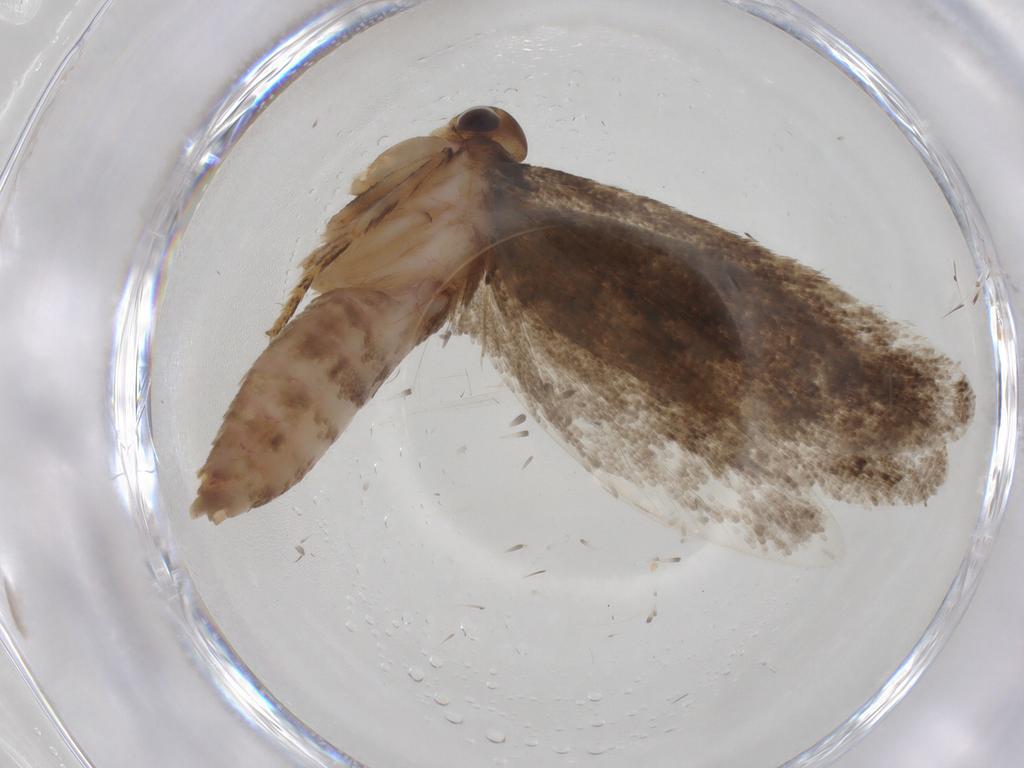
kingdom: Animalia
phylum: Arthropoda
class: Insecta
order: Lepidoptera
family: Oecophoridae
